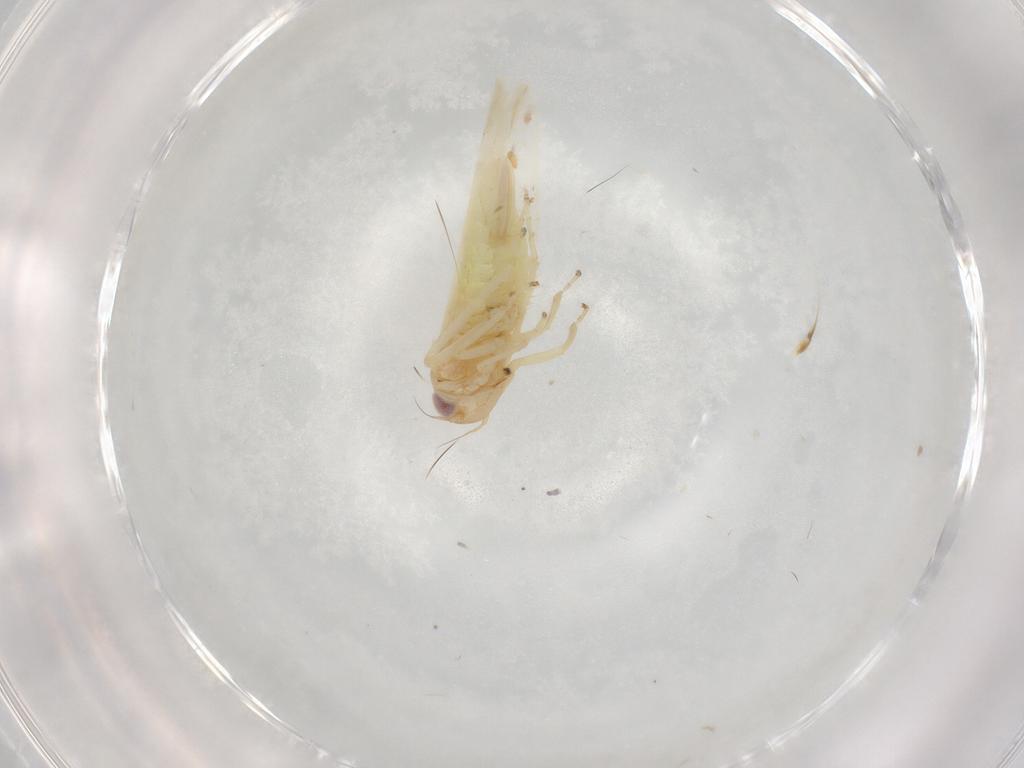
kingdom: Animalia
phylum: Arthropoda
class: Insecta
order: Hemiptera
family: Cicadellidae
